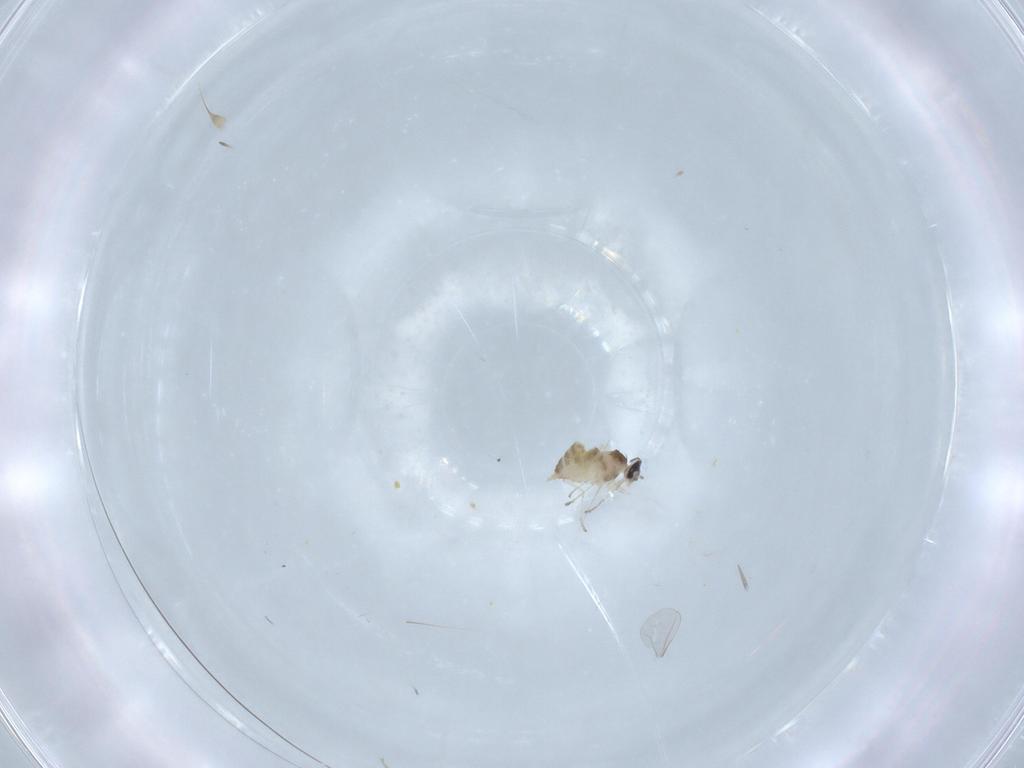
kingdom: Animalia
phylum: Arthropoda
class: Insecta
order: Diptera
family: Cecidomyiidae
